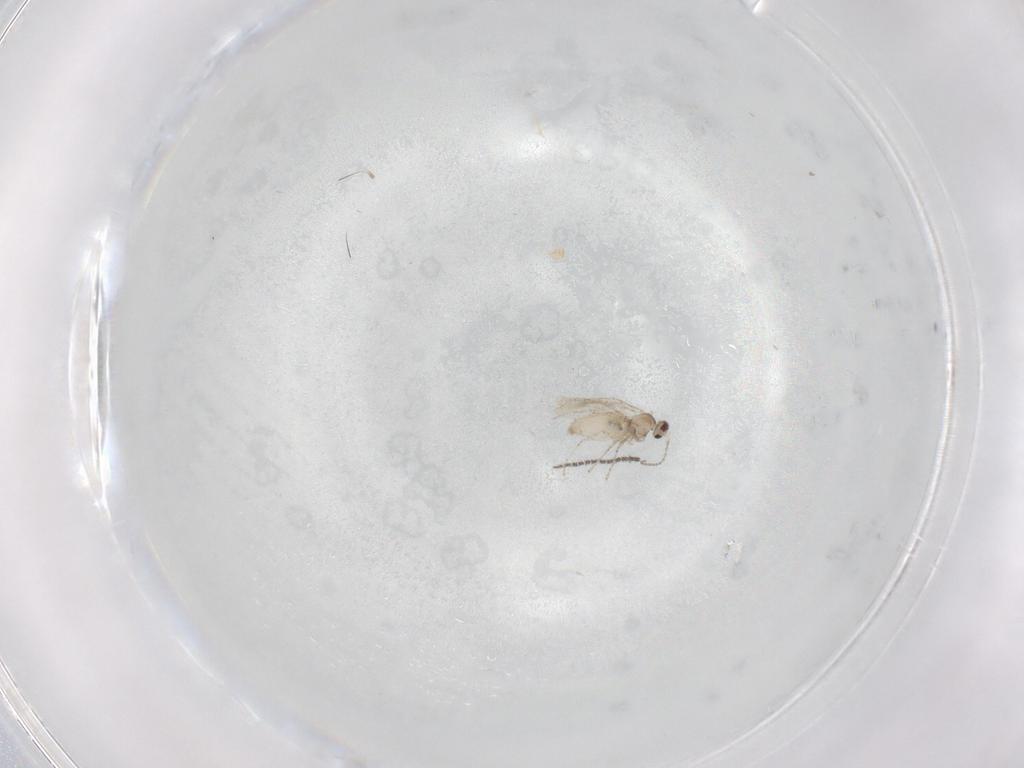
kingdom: Animalia
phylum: Arthropoda
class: Insecta
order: Diptera
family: Cecidomyiidae
